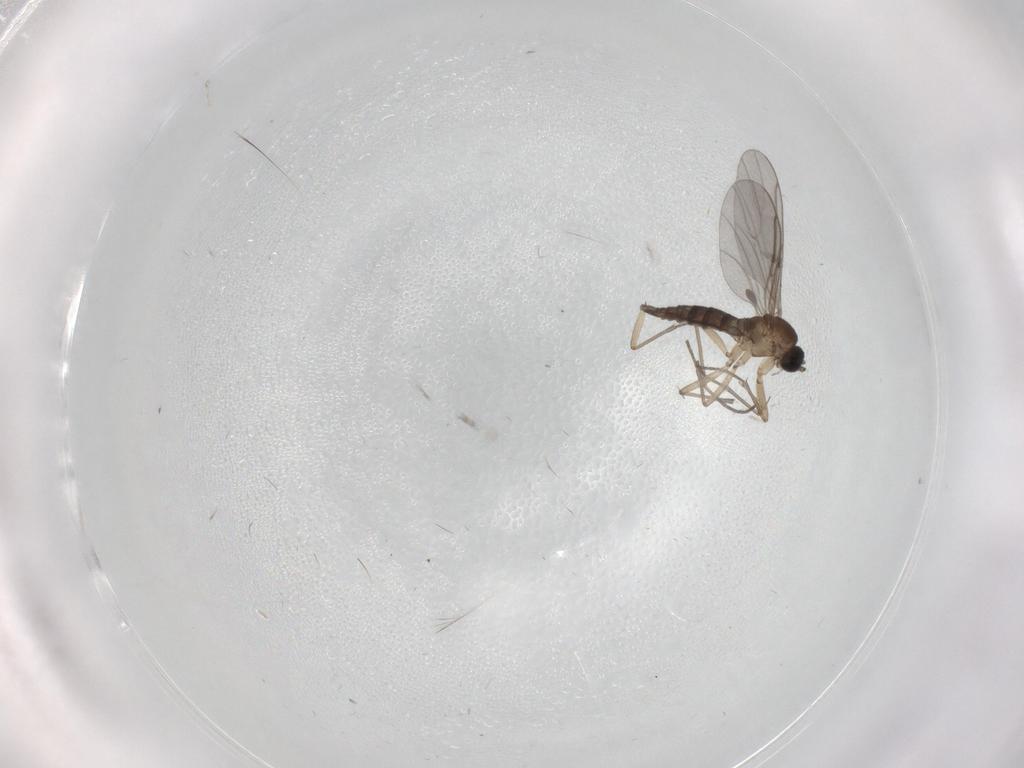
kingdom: Animalia
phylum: Arthropoda
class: Insecta
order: Diptera
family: Sciaridae
